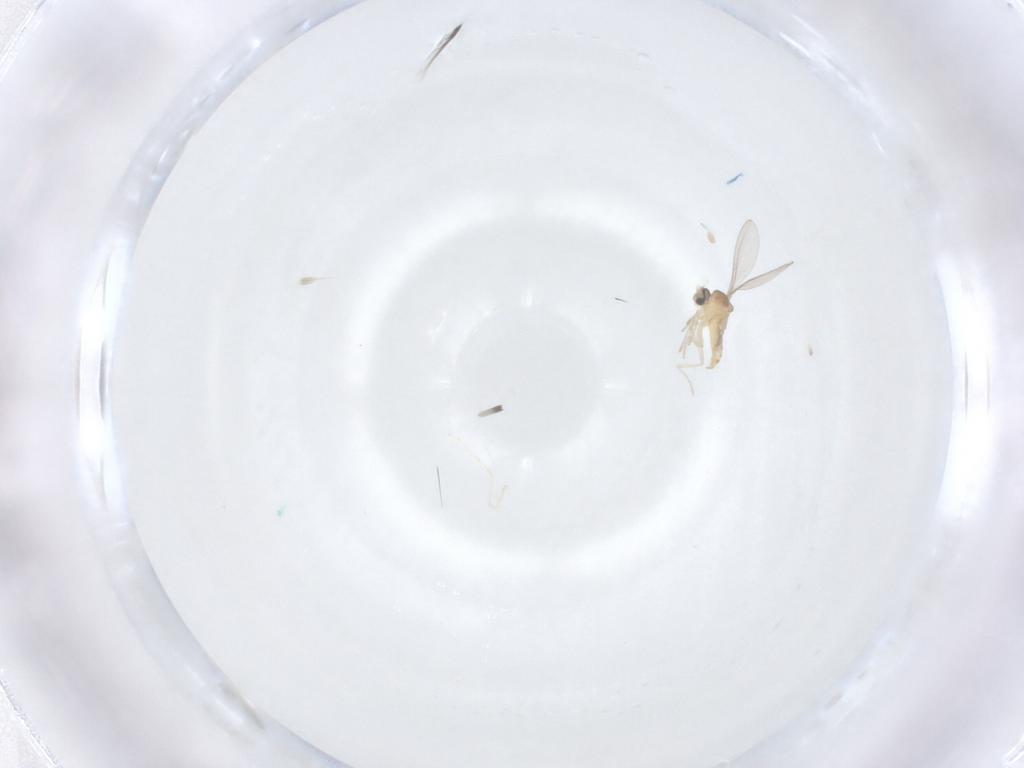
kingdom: Animalia
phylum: Arthropoda
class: Insecta
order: Diptera
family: Cecidomyiidae
